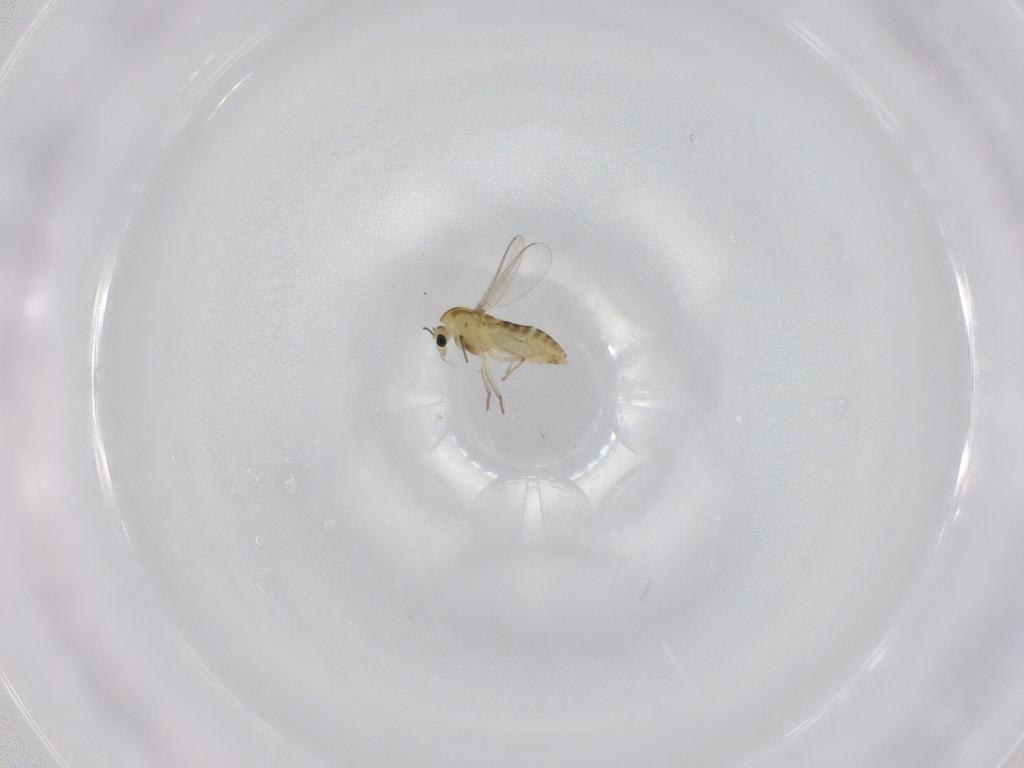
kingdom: Animalia
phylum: Arthropoda
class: Insecta
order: Diptera
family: Chironomidae
